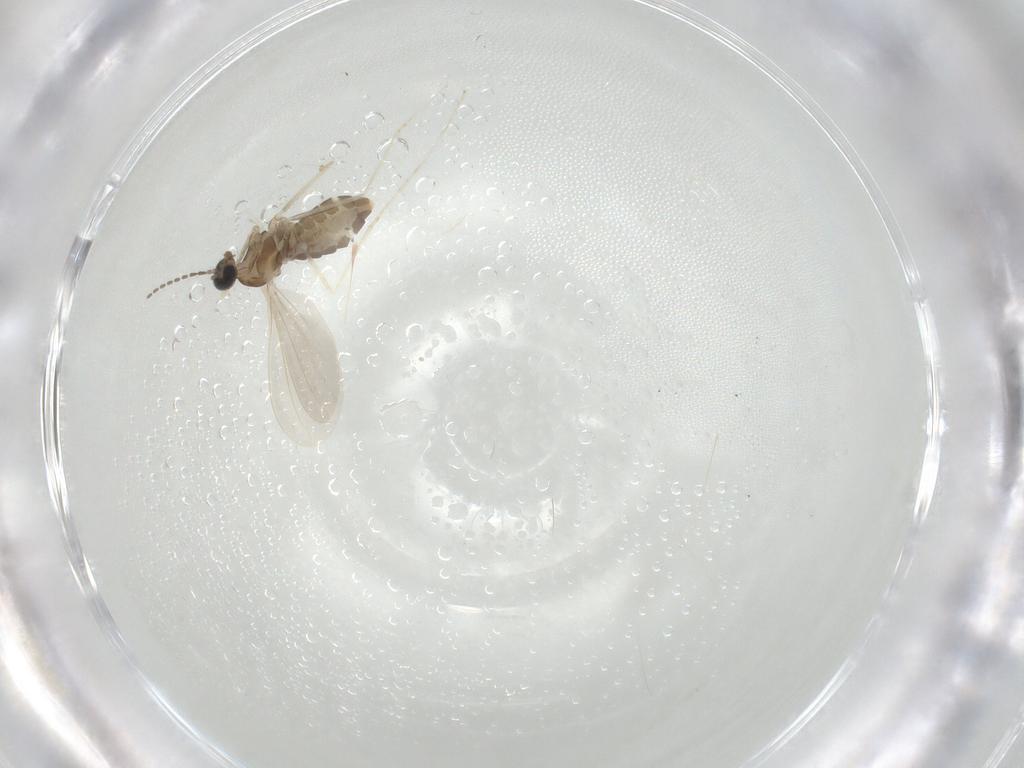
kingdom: Animalia
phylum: Arthropoda
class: Insecta
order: Diptera
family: Cecidomyiidae
